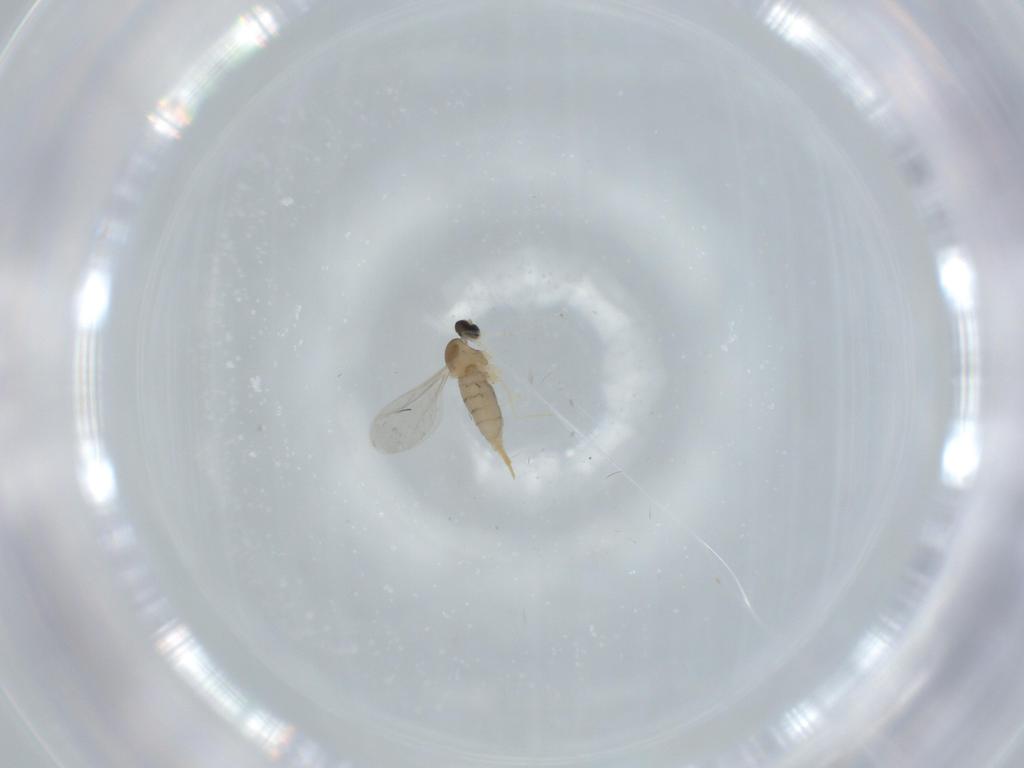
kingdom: Animalia
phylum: Arthropoda
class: Insecta
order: Diptera
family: Cecidomyiidae
